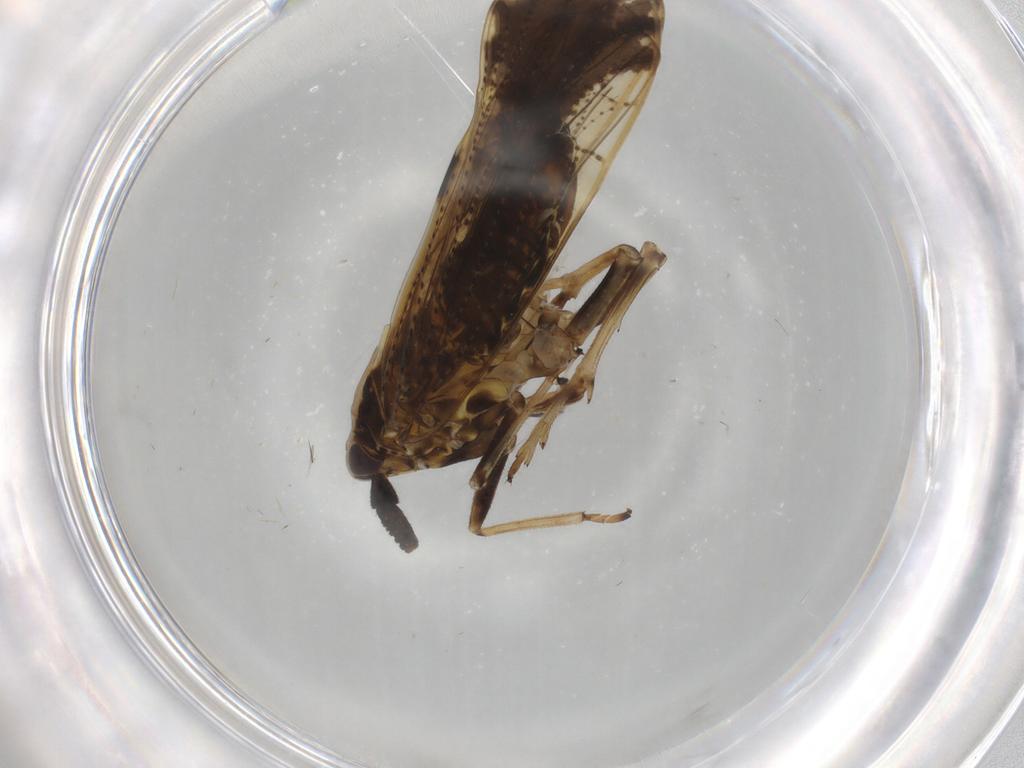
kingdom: Animalia
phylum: Arthropoda
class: Insecta
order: Hemiptera
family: Delphacidae
